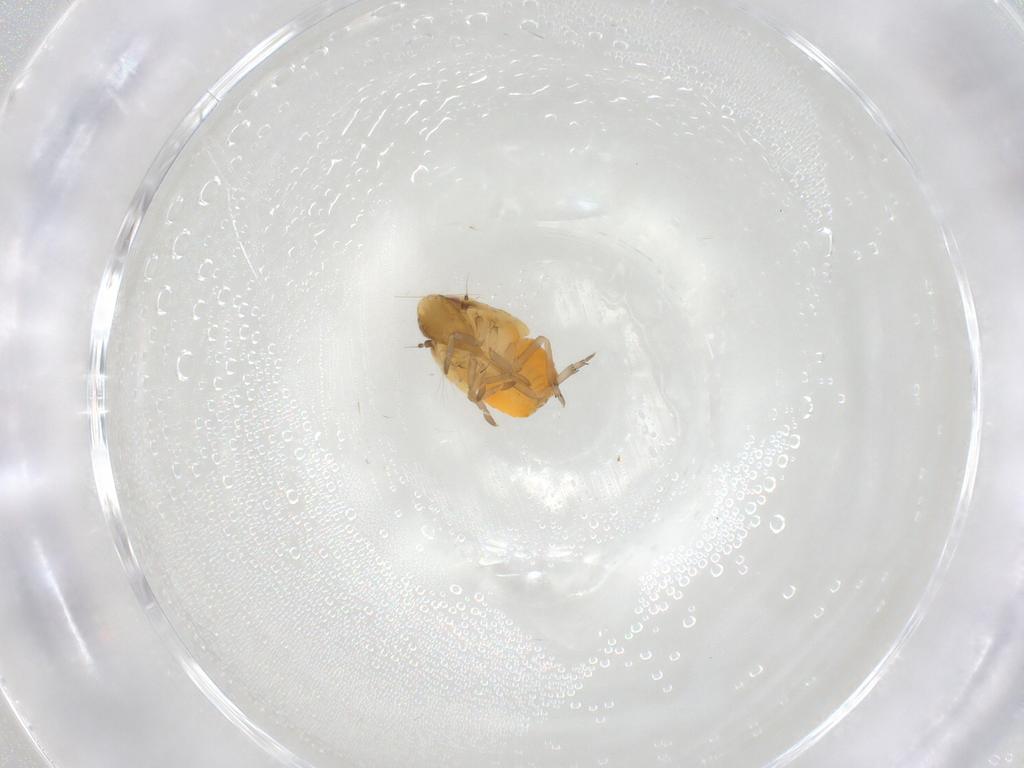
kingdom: Animalia
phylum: Arthropoda
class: Insecta
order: Hemiptera
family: Flatidae
